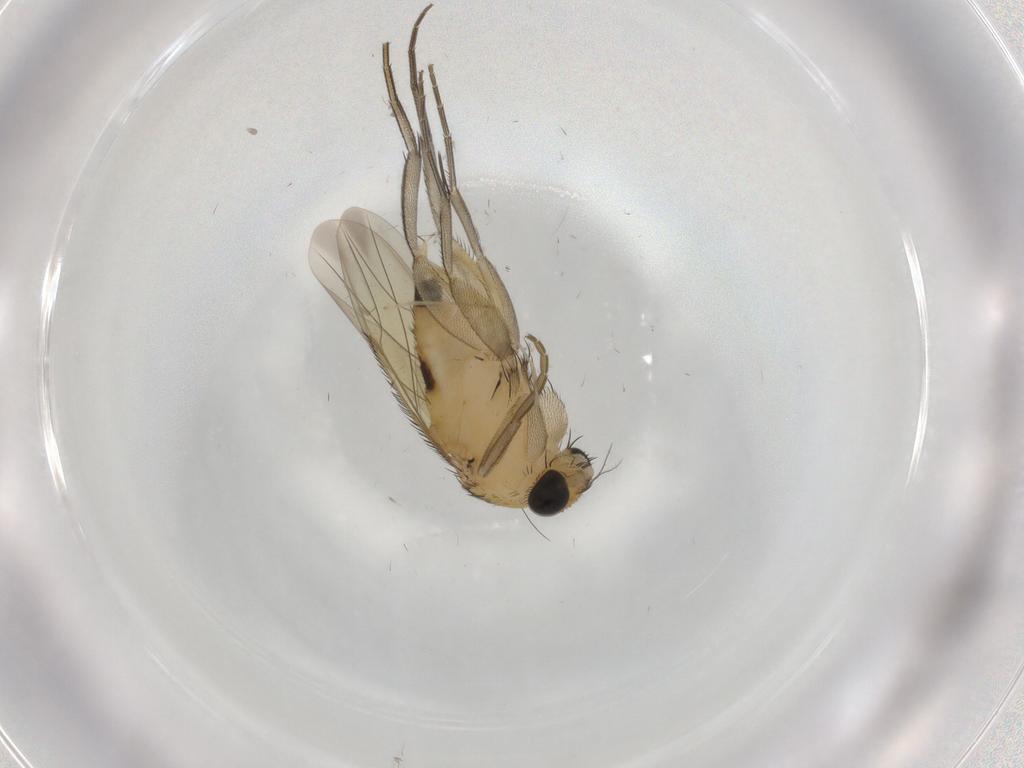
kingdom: Animalia
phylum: Arthropoda
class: Insecta
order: Diptera
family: Phoridae
